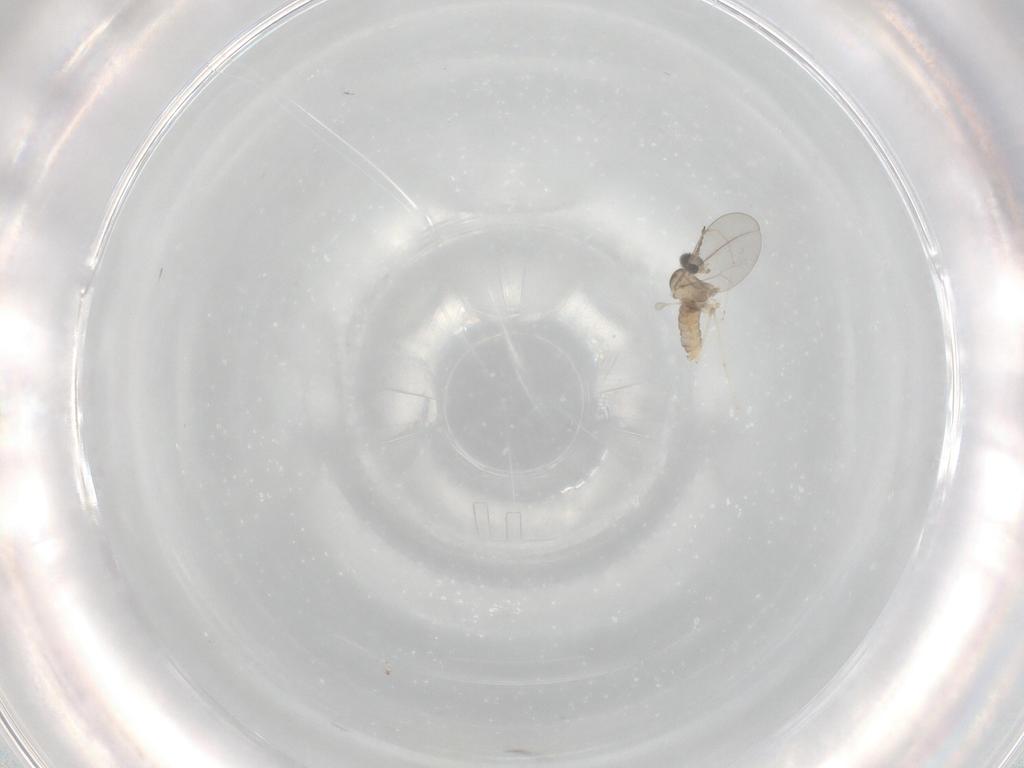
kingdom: Animalia
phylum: Arthropoda
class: Insecta
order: Diptera
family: Cecidomyiidae
